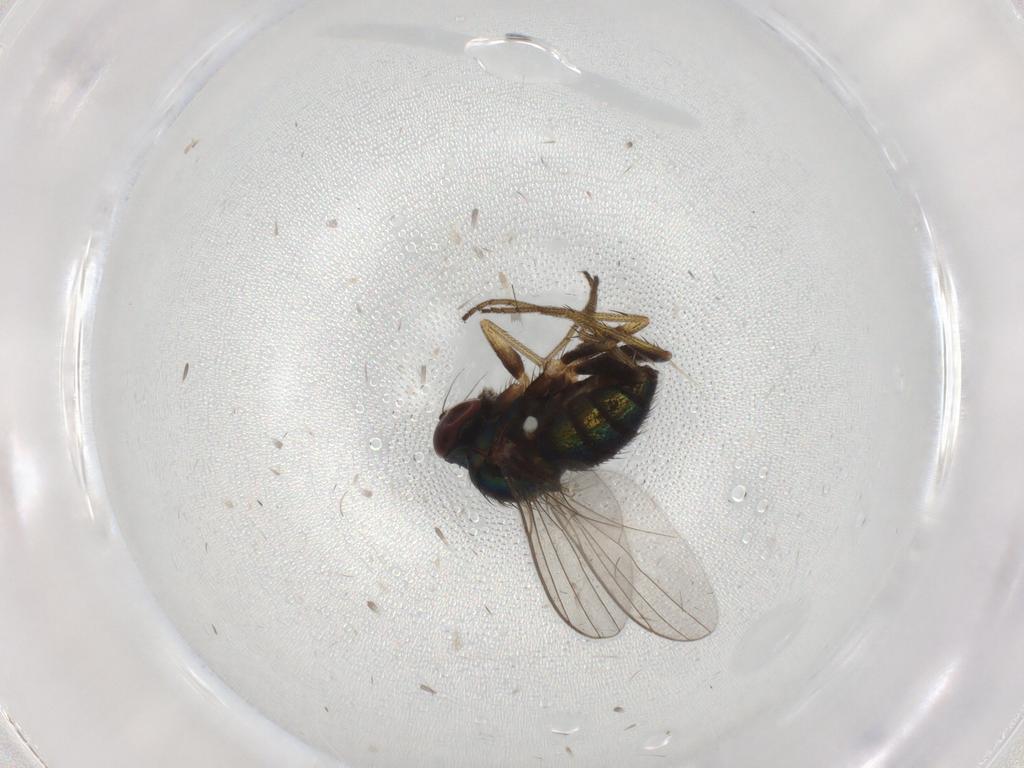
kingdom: Animalia
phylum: Arthropoda
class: Insecta
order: Diptera
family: Chironomidae
